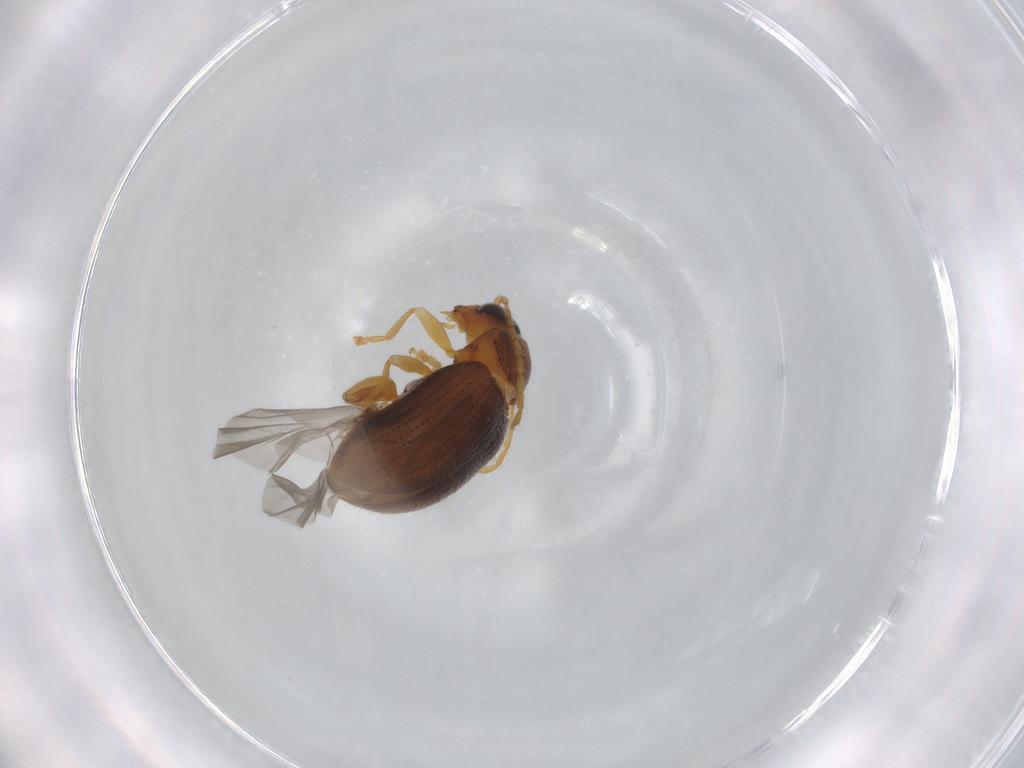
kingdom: Animalia
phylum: Arthropoda
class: Insecta
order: Coleoptera
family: Chrysomelidae
